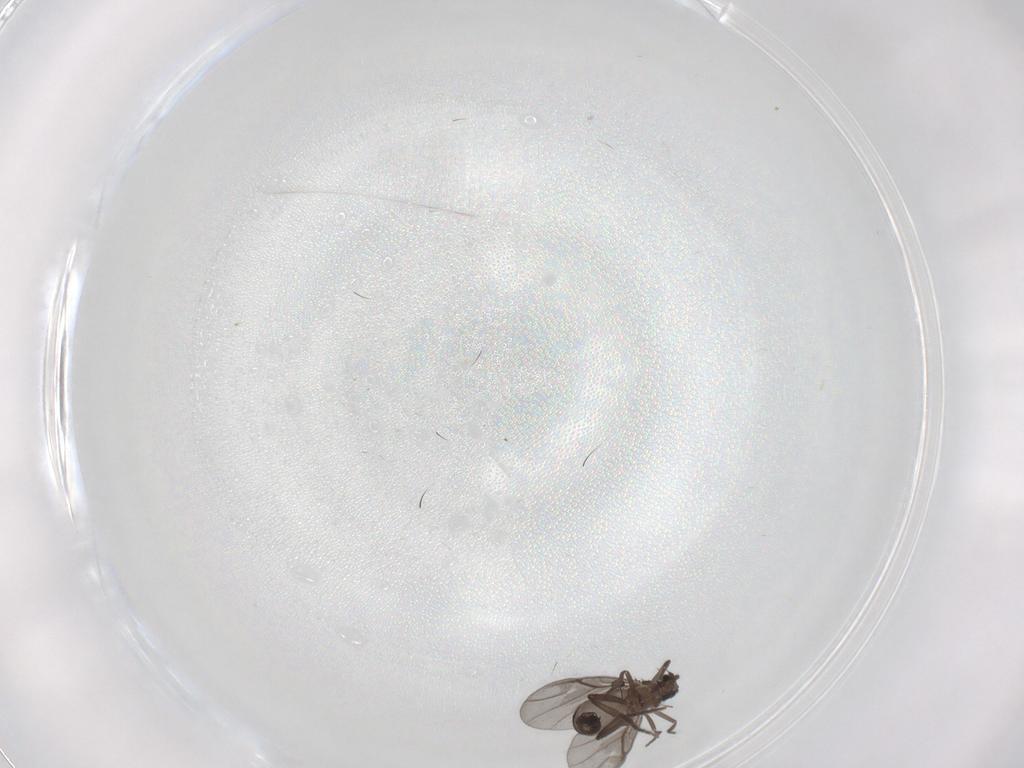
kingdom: Animalia
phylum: Arthropoda
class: Insecta
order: Diptera
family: Phoridae
